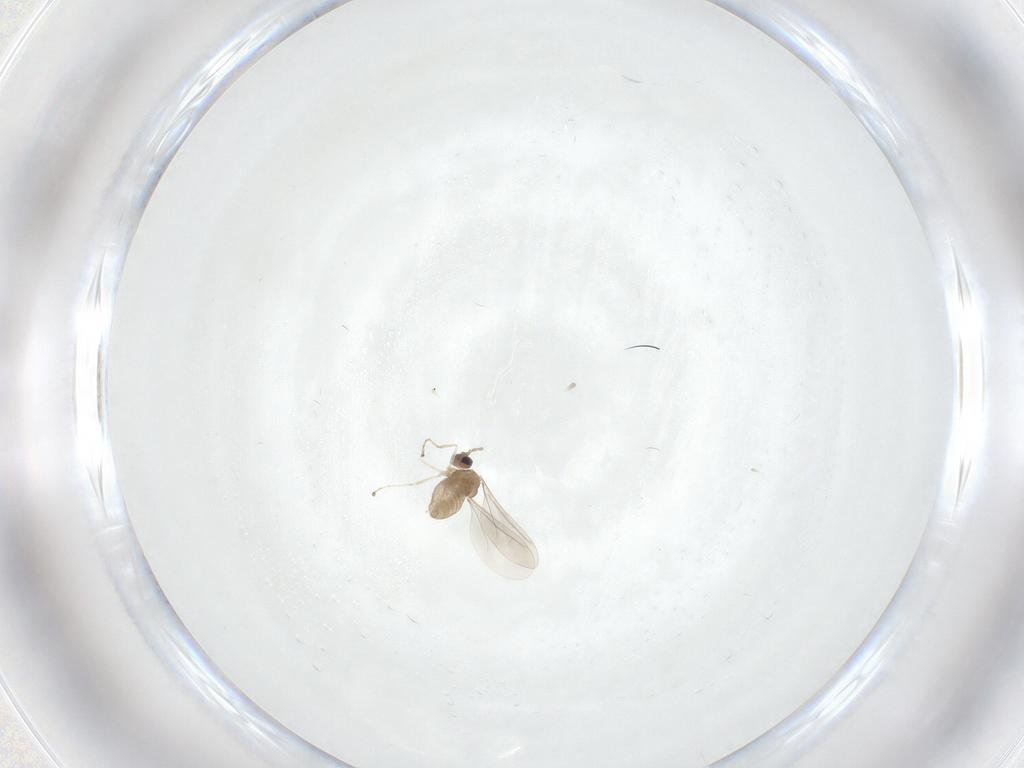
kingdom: Animalia
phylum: Arthropoda
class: Insecta
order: Diptera
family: Cecidomyiidae
